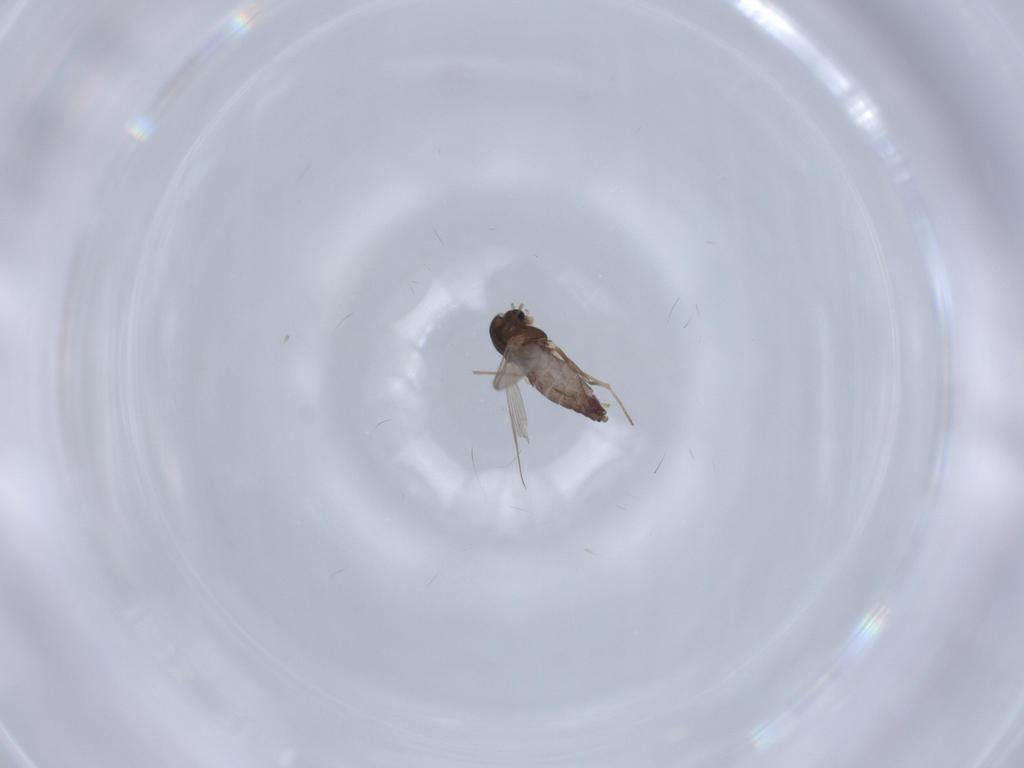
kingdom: Animalia
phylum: Arthropoda
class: Insecta
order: Diptera
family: Chironomidae
